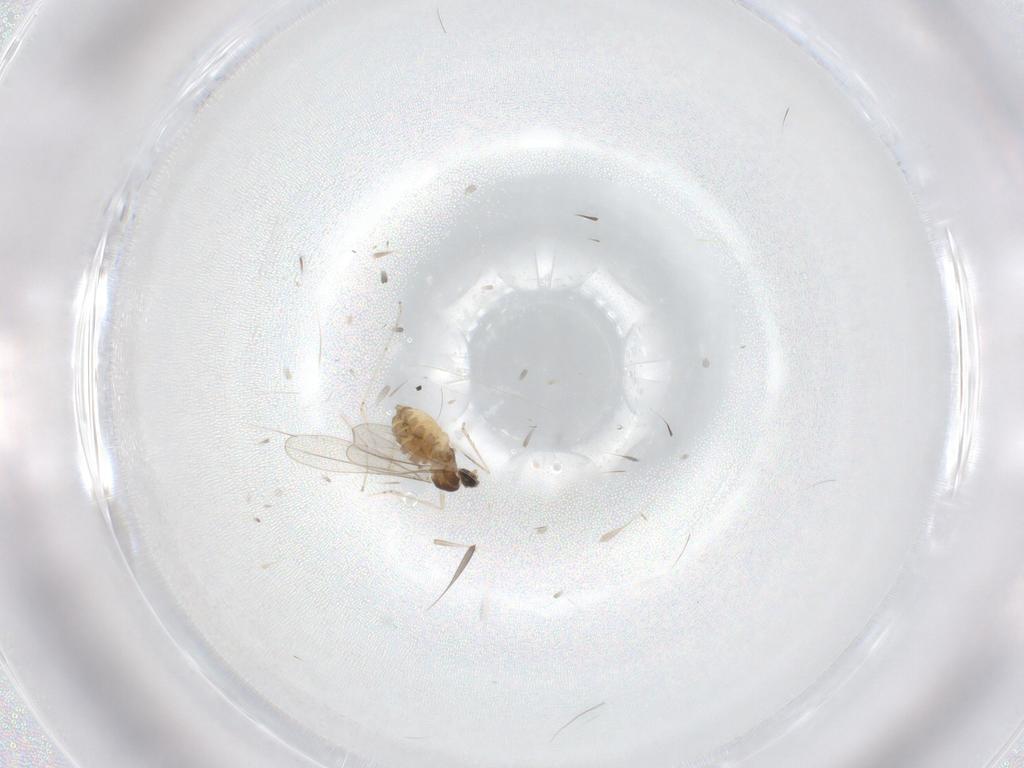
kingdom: Animalia
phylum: Arthropoda
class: Insecta
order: Diptera
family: Cecidomyiidae
